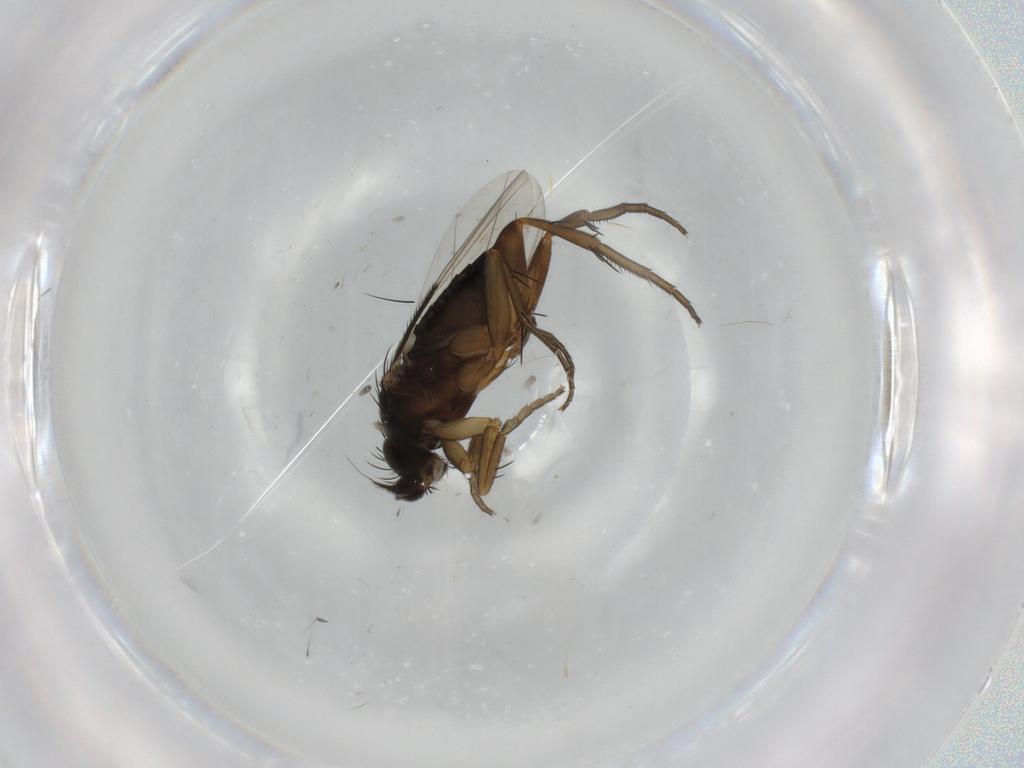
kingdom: Animalia
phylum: Arthropoda
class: Insecta
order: Diptera
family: Phoridae
